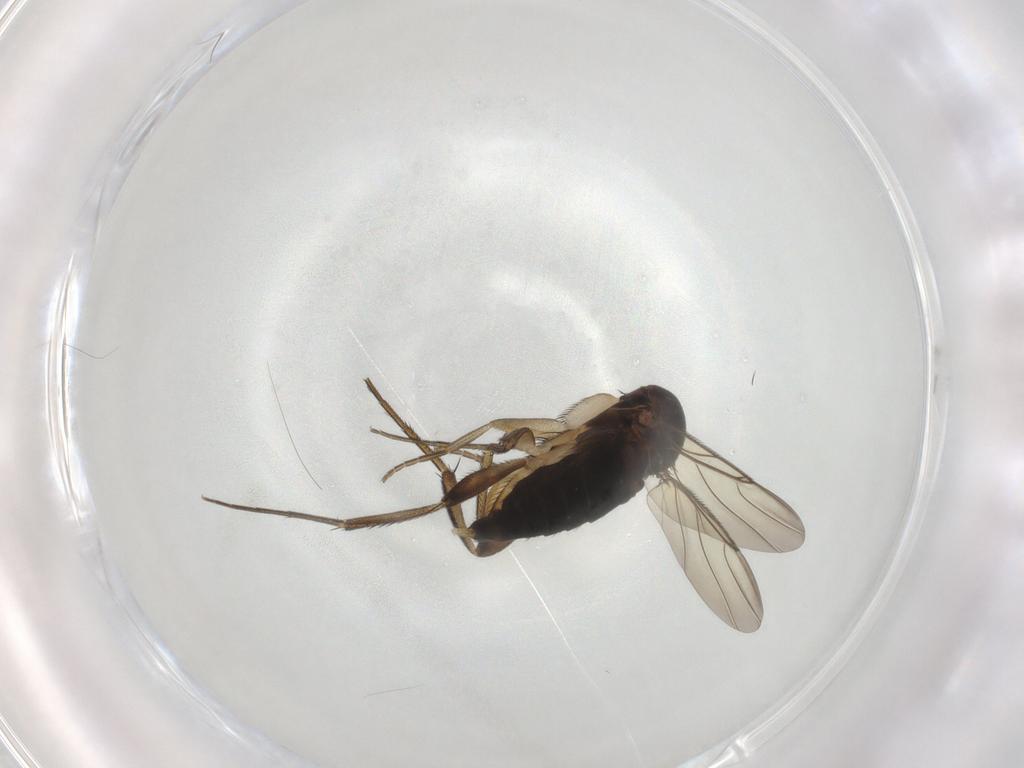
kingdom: Animalia
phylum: Arthropoda
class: Insecta
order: Diptera
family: Phoridae
